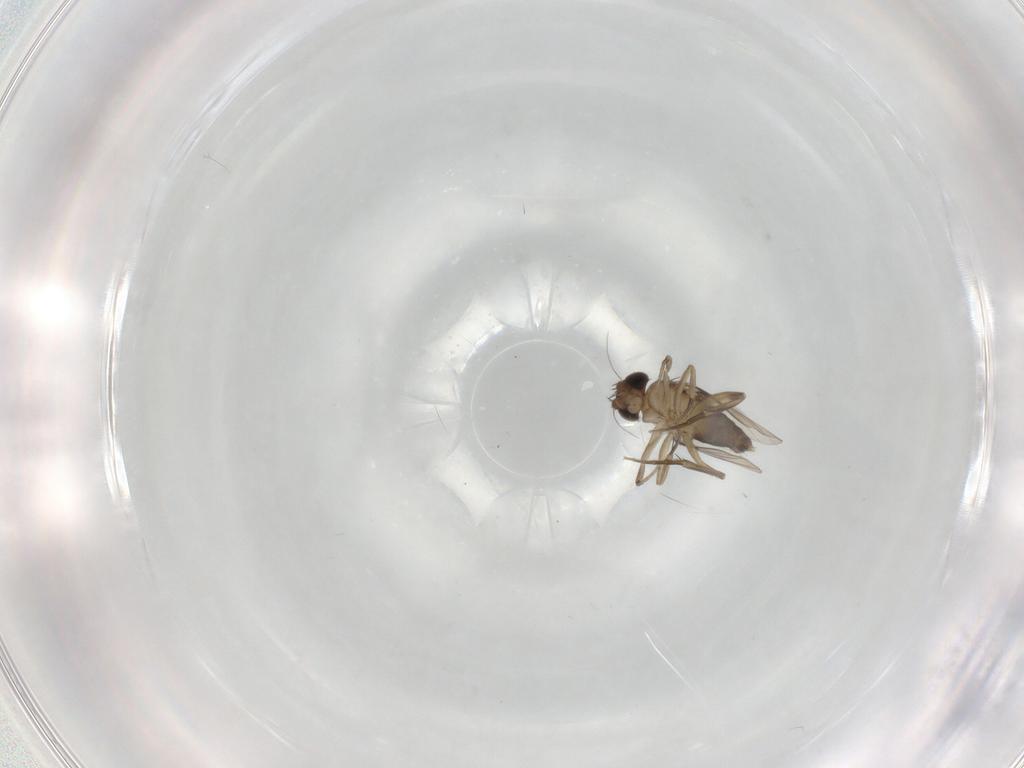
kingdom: Animalia
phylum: Arthropoda
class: Insecta
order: Diptera
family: Phoridae
